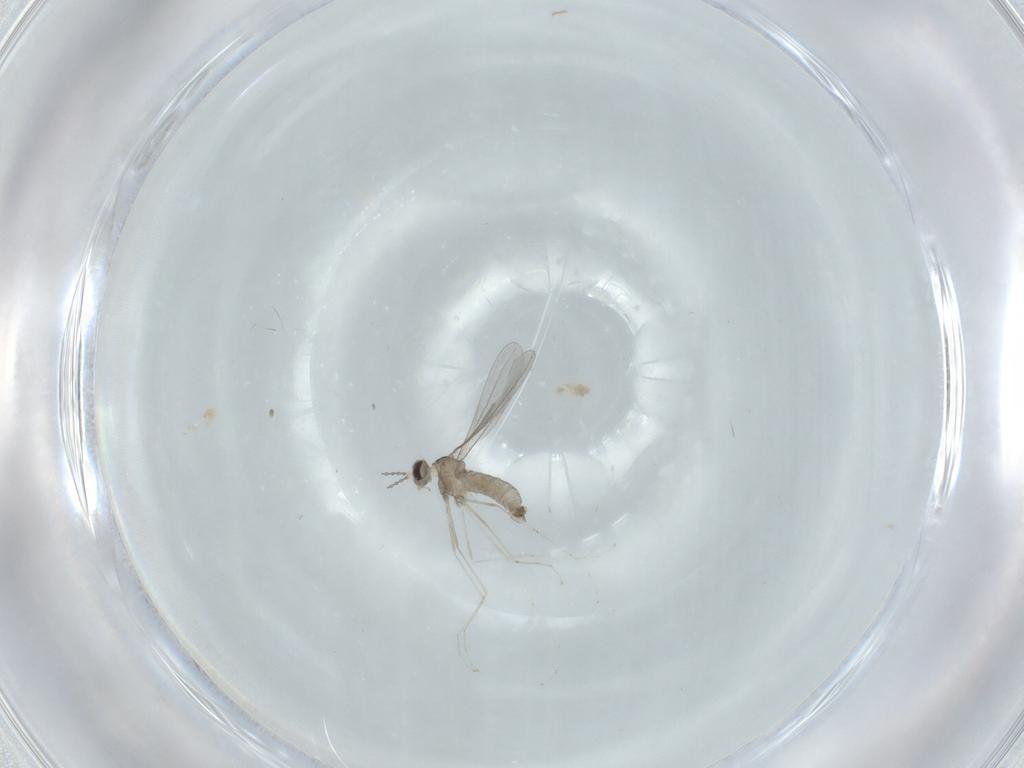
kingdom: Animalia
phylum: Arthropoda
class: Insecta
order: Diptera
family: Cecidomyiidae
